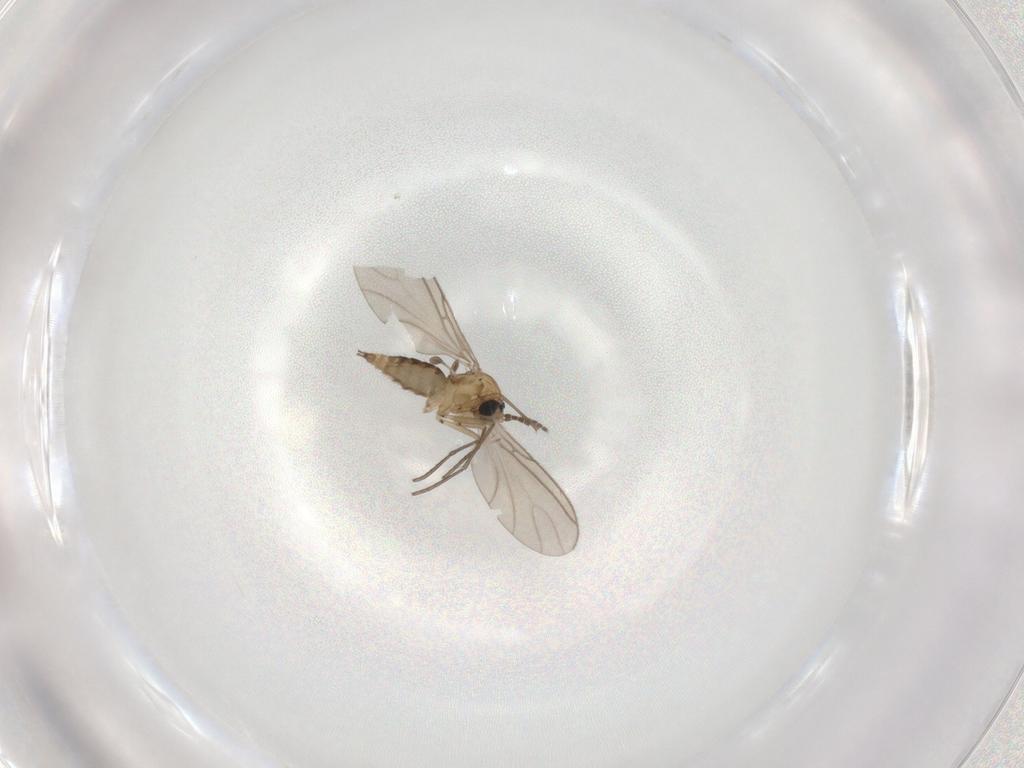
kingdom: Animalia
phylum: Arthropoda
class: Insecta
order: Diptera
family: Sciaridae
